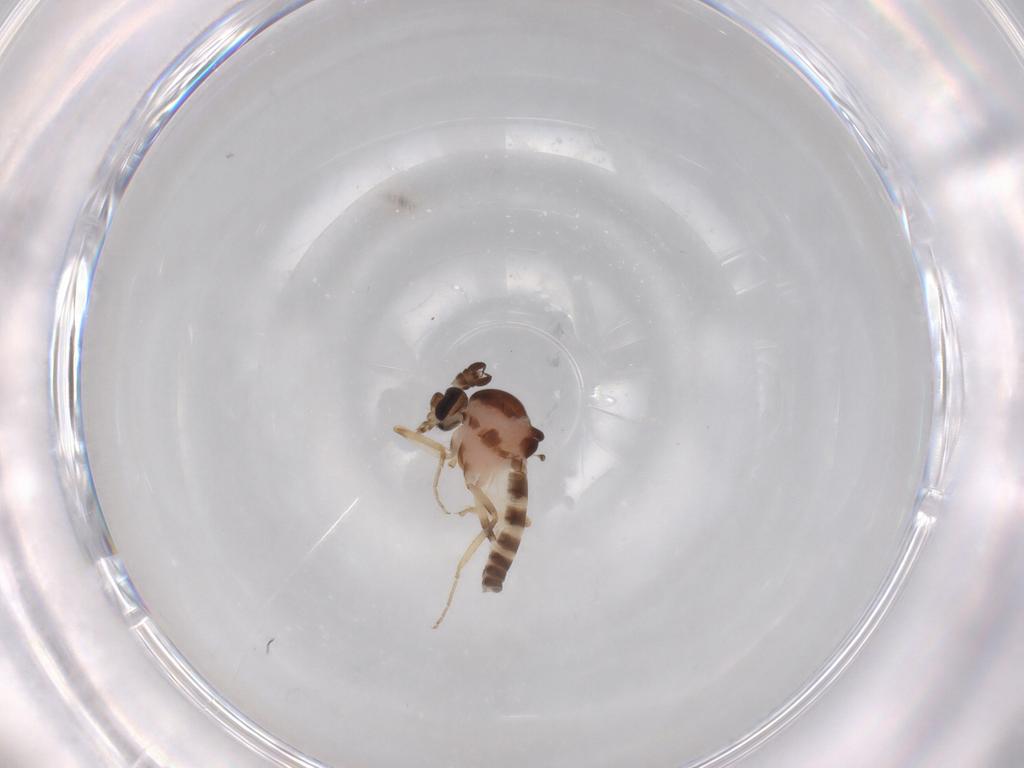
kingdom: Animalia
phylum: Arthropoda
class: Insecta
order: Diptera
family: Ceratopogonidae
